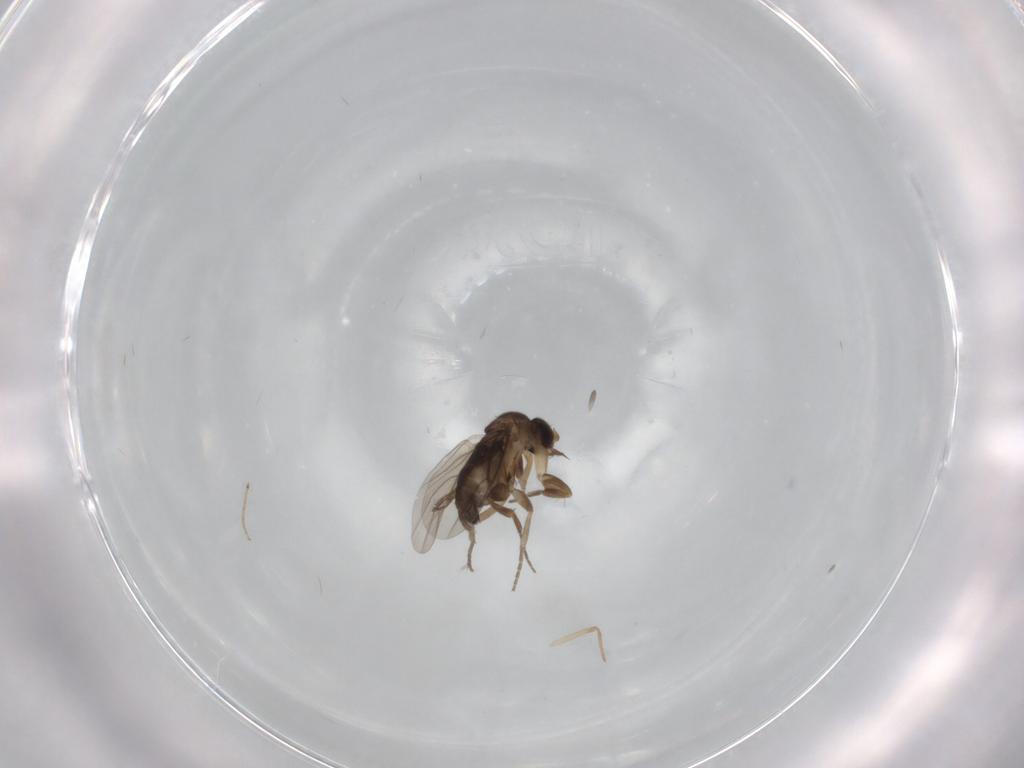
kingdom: Animalia
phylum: Arthropoda
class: Insecta
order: Diptera
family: Chironomidae
